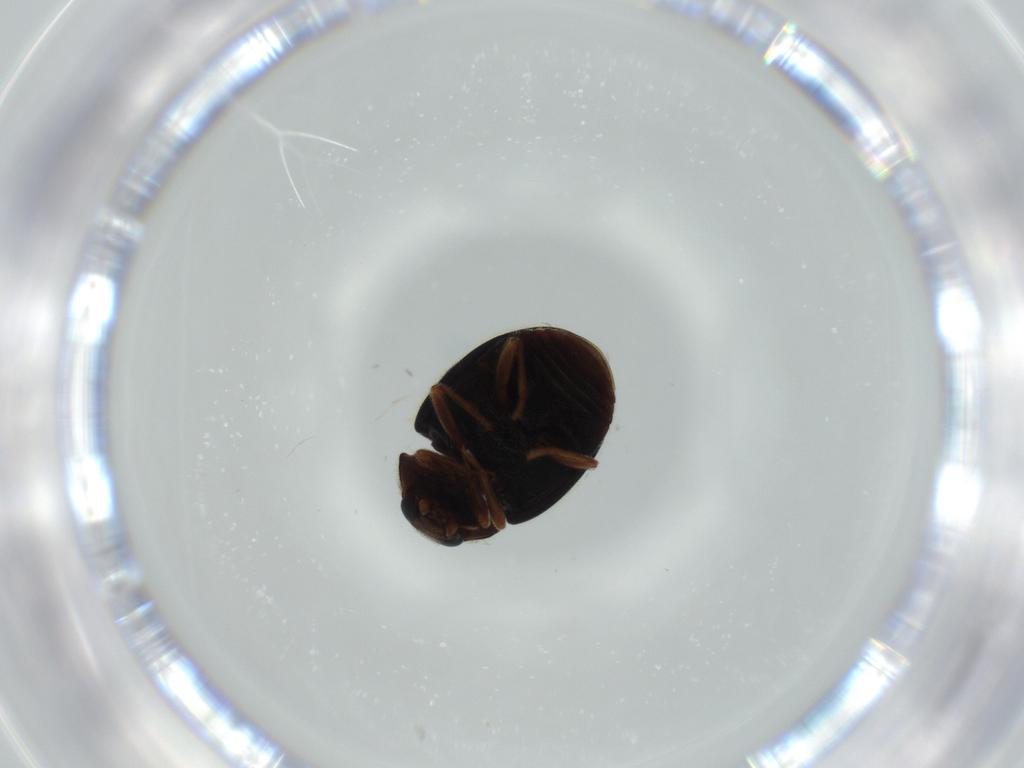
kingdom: Animalia
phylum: Arthropoda
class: Insecta
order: Coleoptera
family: Coccinellidae
